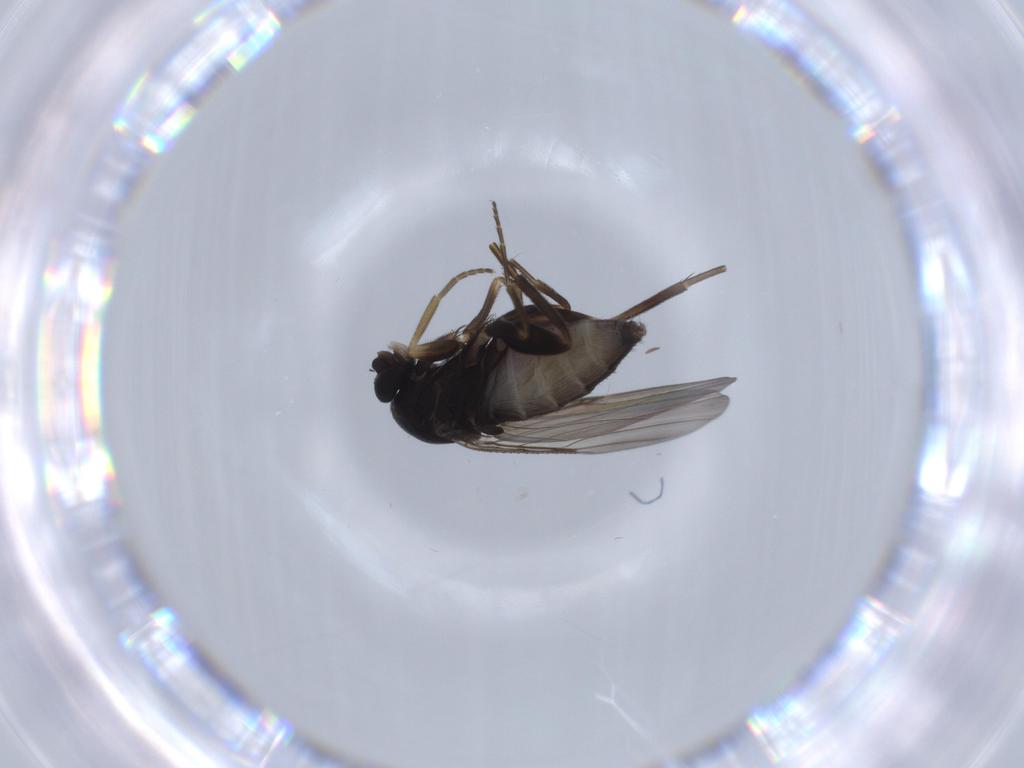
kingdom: Animalia
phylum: Arthropoda
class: Insecta
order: Diptera
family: Phoridae
